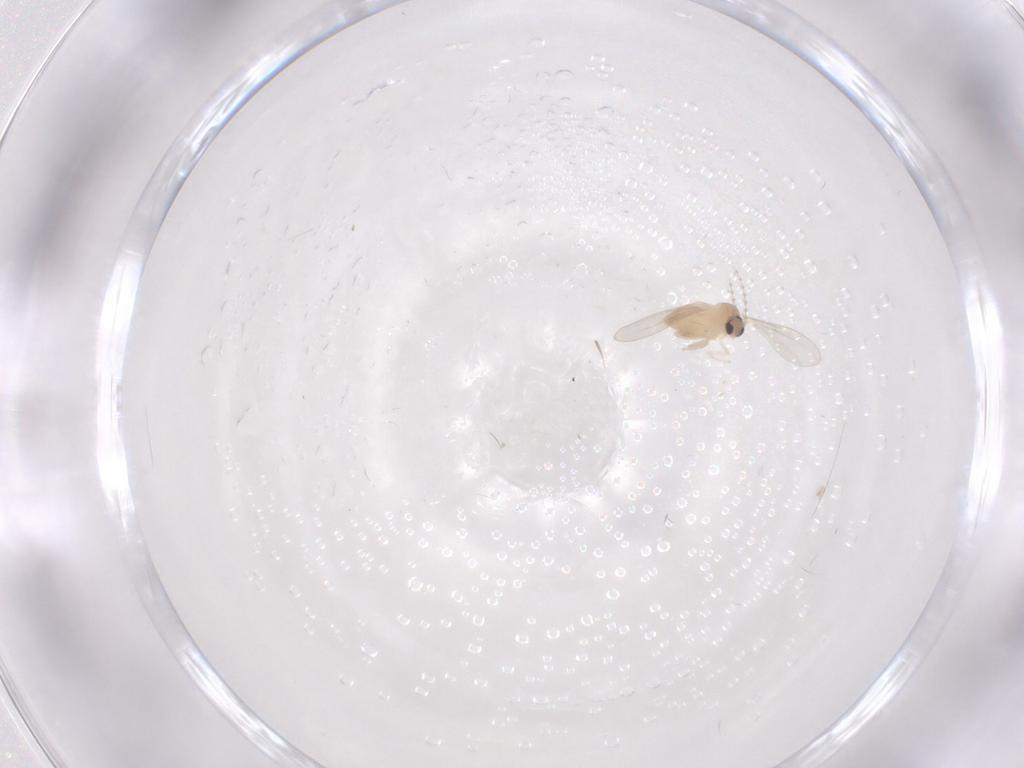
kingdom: Animalia
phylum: Arthropoda
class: Insecta
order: Diptera
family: Cecidomyiidae
